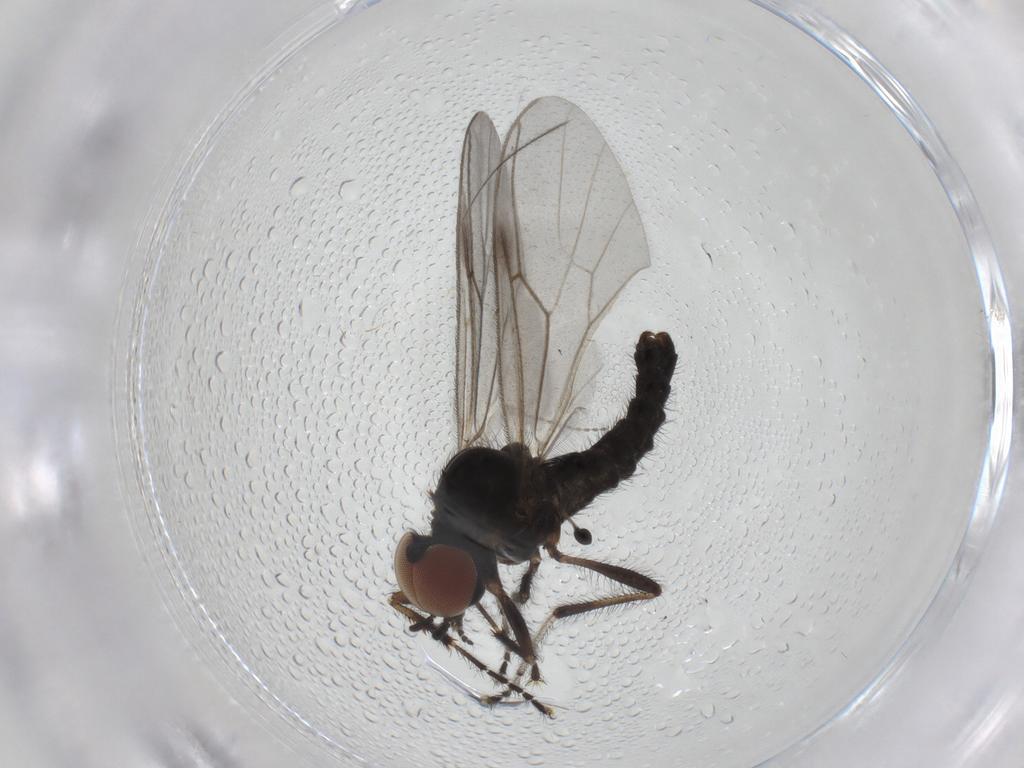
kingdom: Animalia
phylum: Arthropoda
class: Insecta
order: Diptera
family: Bibionidae
